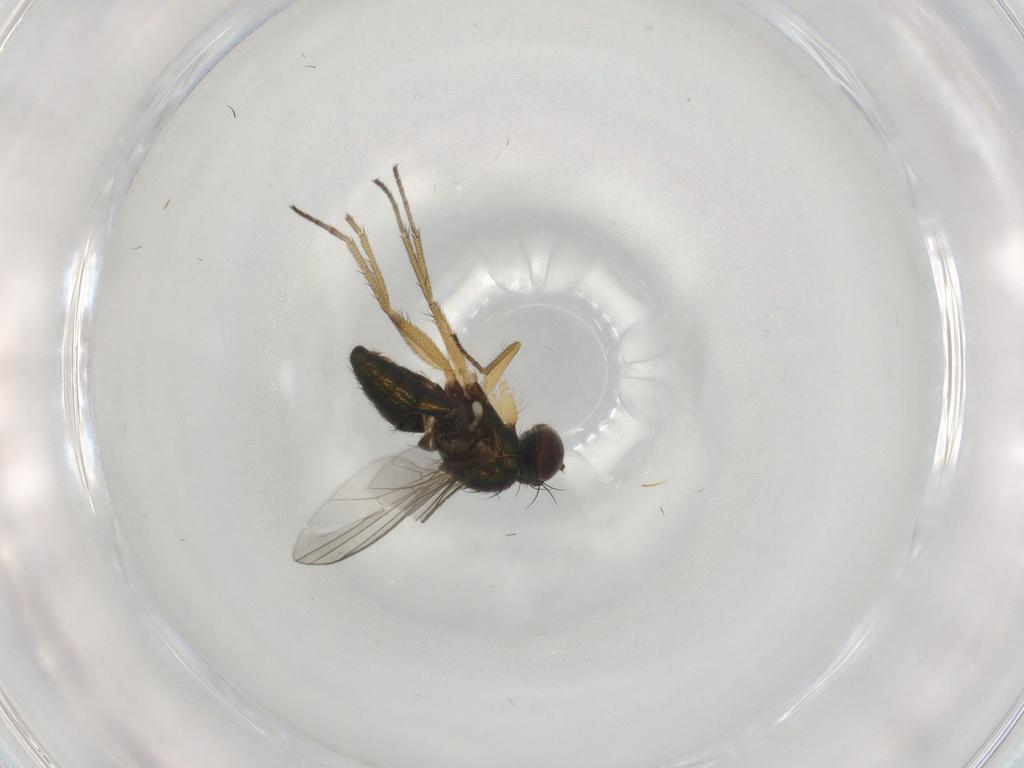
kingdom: Animalia
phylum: Arthropoda
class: Insecta
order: Diptera
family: Dolichopodidae
